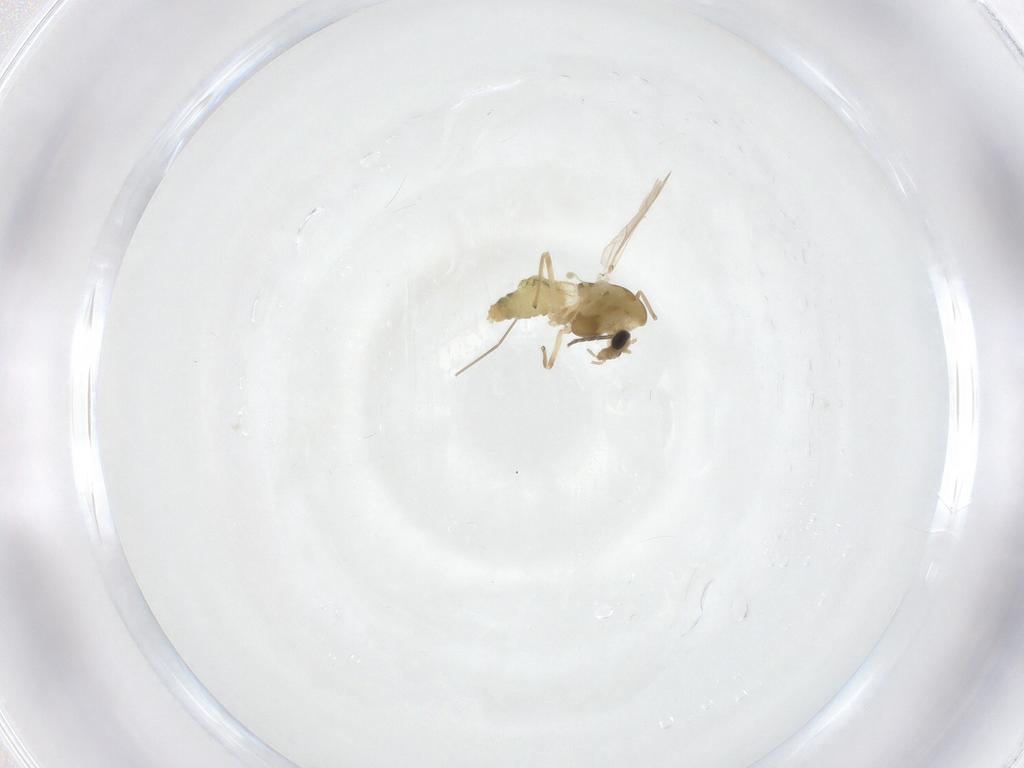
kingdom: Animalia
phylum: Arthropoda
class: Insecta
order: Diptera
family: Chironomidae
